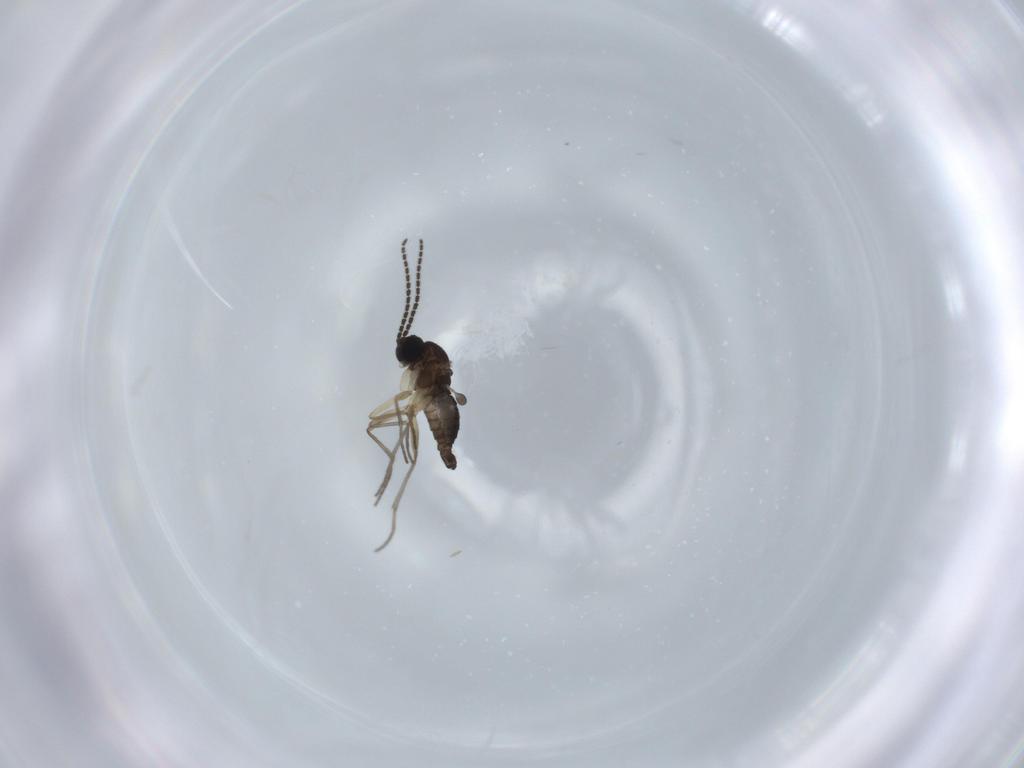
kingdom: Animalia
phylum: Arthropoda
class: Insecta
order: Diptera
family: Sciaridae
